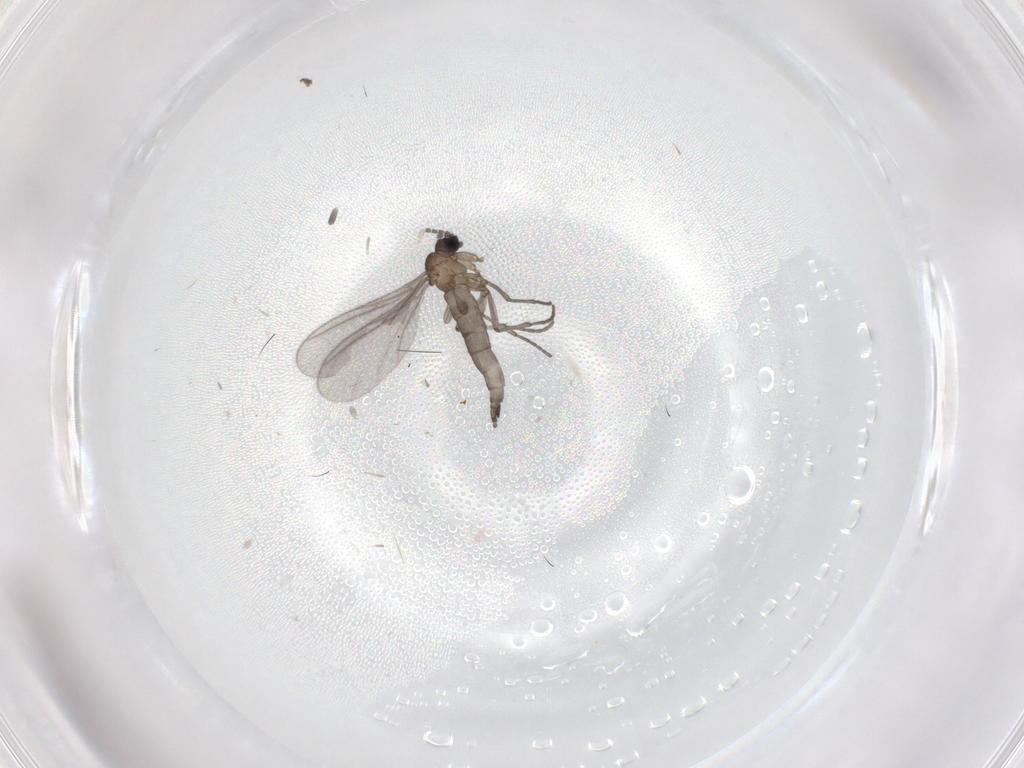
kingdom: Animalia
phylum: Arthropoda
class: Insecta
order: Diptera
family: Sciaridae
